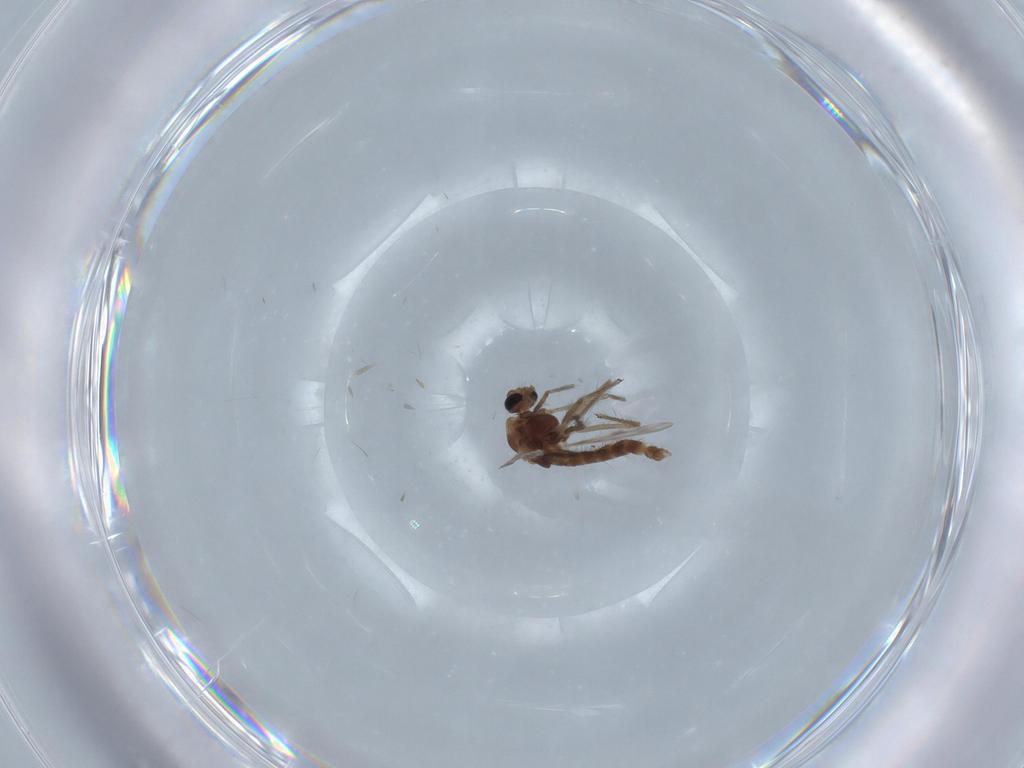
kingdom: Animalia
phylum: Arthropoda
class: Insecta
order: Diptera
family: Chironomidae
